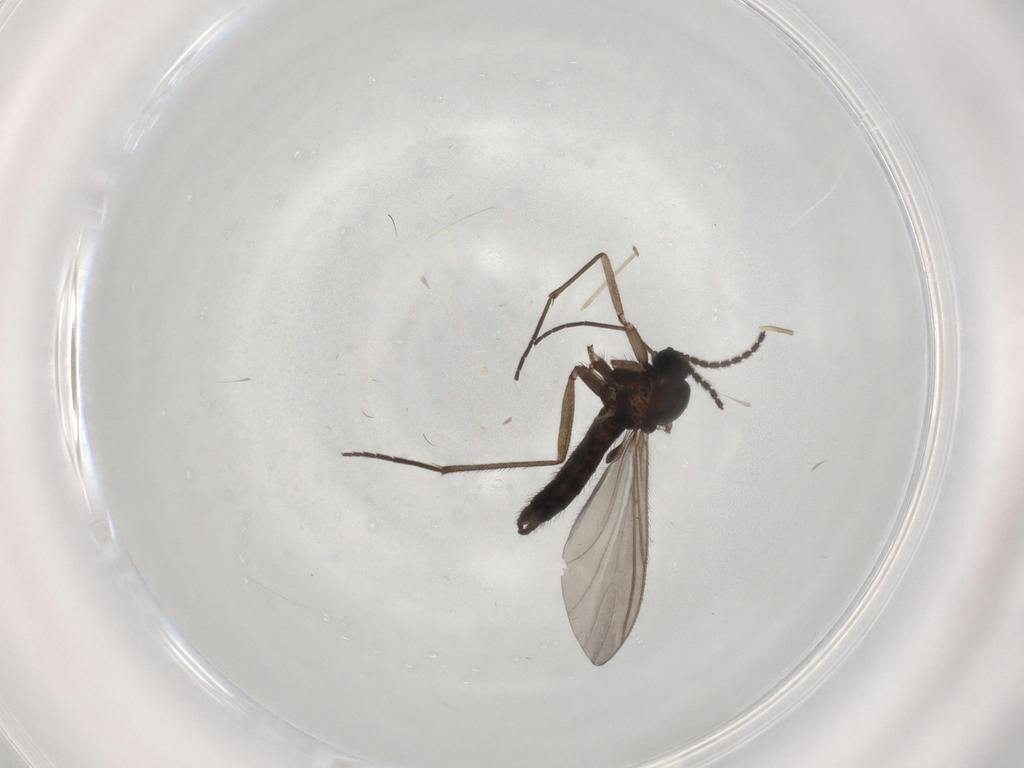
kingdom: Animalia
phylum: Arthropoda
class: Insecta
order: Diptera
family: Sciaridae
